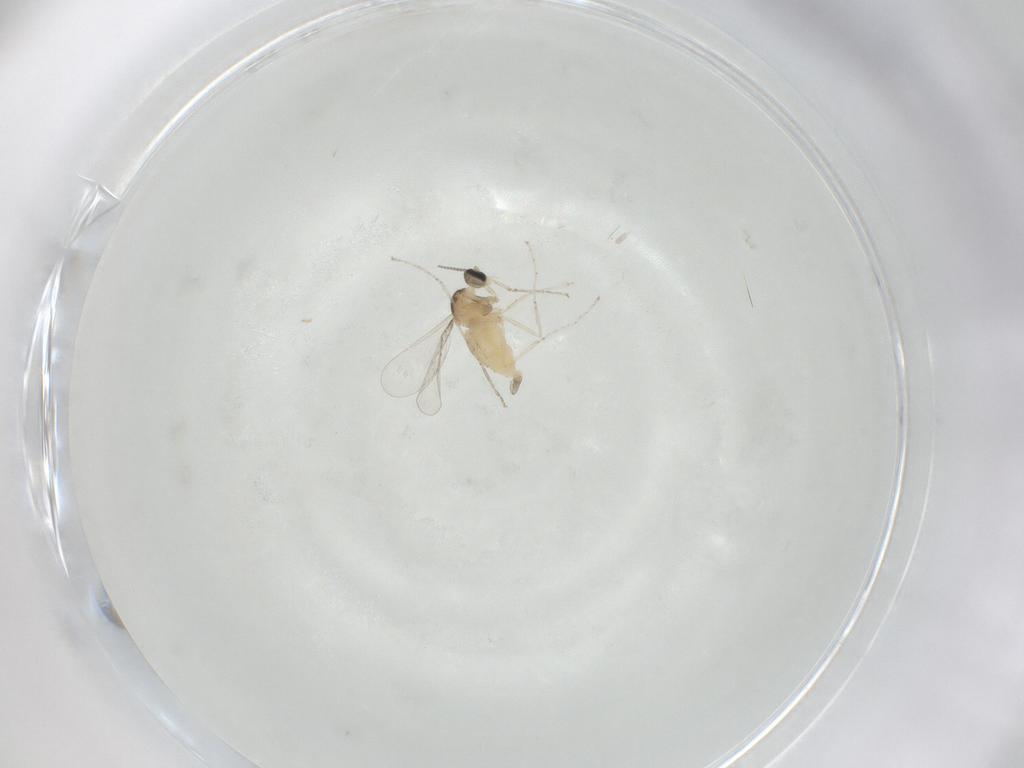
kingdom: Animalia
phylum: Arthropoda
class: Insecta
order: Diptera
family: Cecidomyiidae
